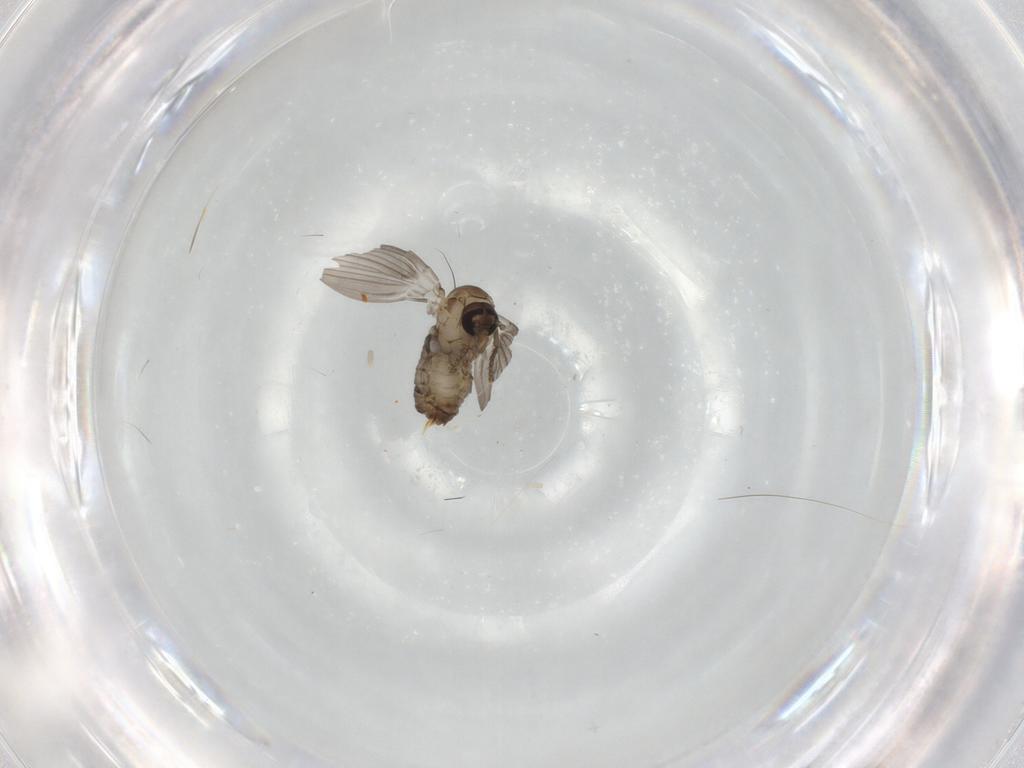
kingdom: Animalia
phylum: Arthropoda
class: Insecta
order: Diptera
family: Psychodidae
